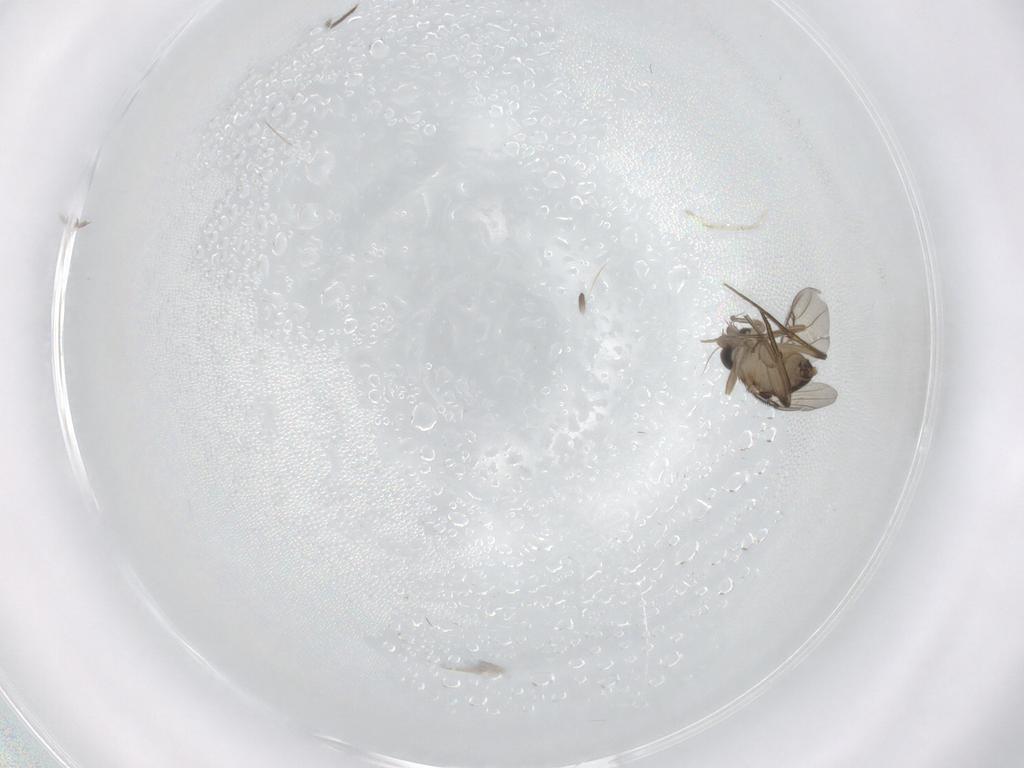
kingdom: Animalia
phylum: Arthropoda
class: Insecta
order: Diptera
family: Phoridae
